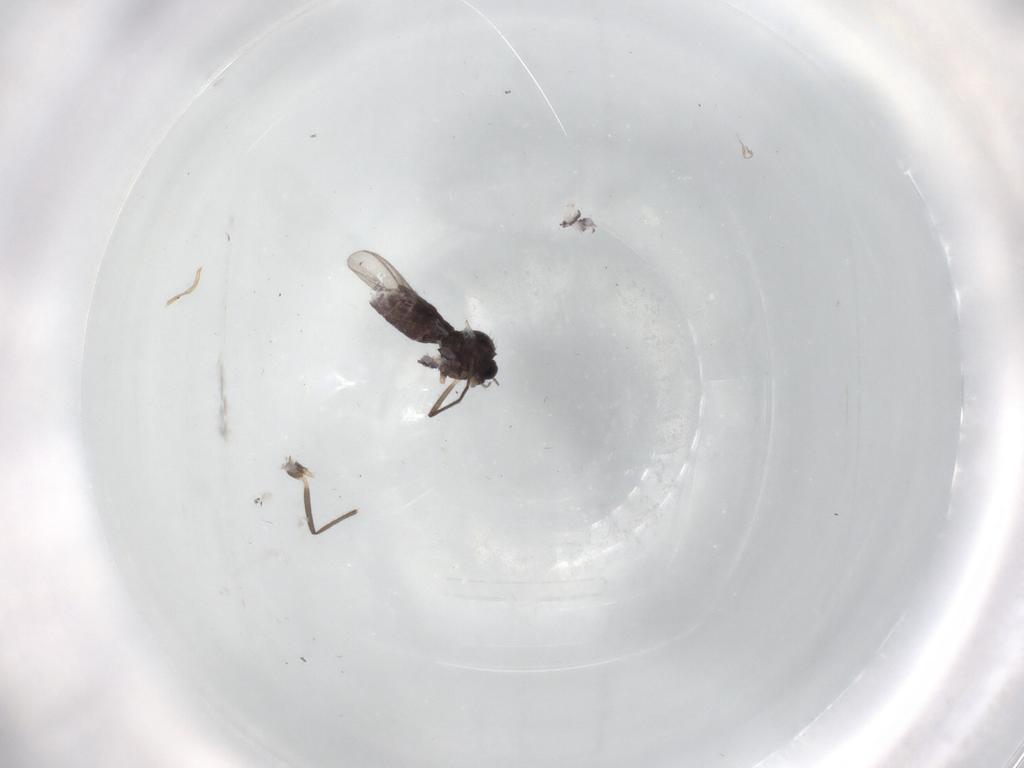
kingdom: Animalia
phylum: Arthropoda
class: Insecta
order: Diptera
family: Chironomidae
